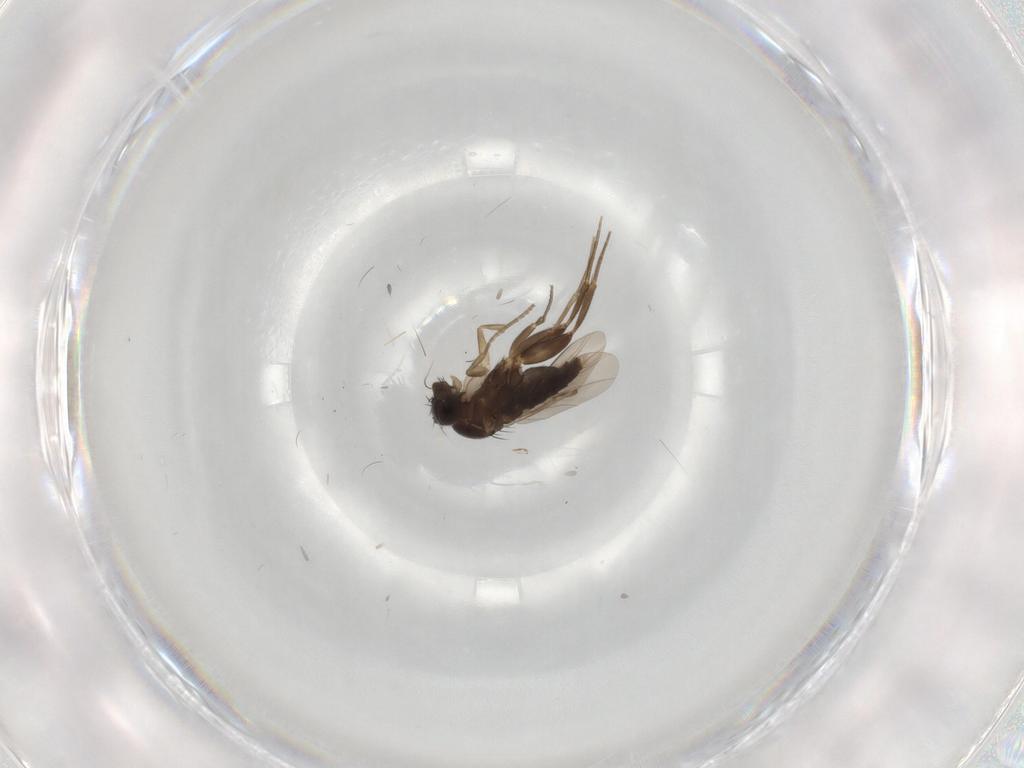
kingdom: Animalia
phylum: Arthropoda
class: Insecta
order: Diptera
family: Phoridae
